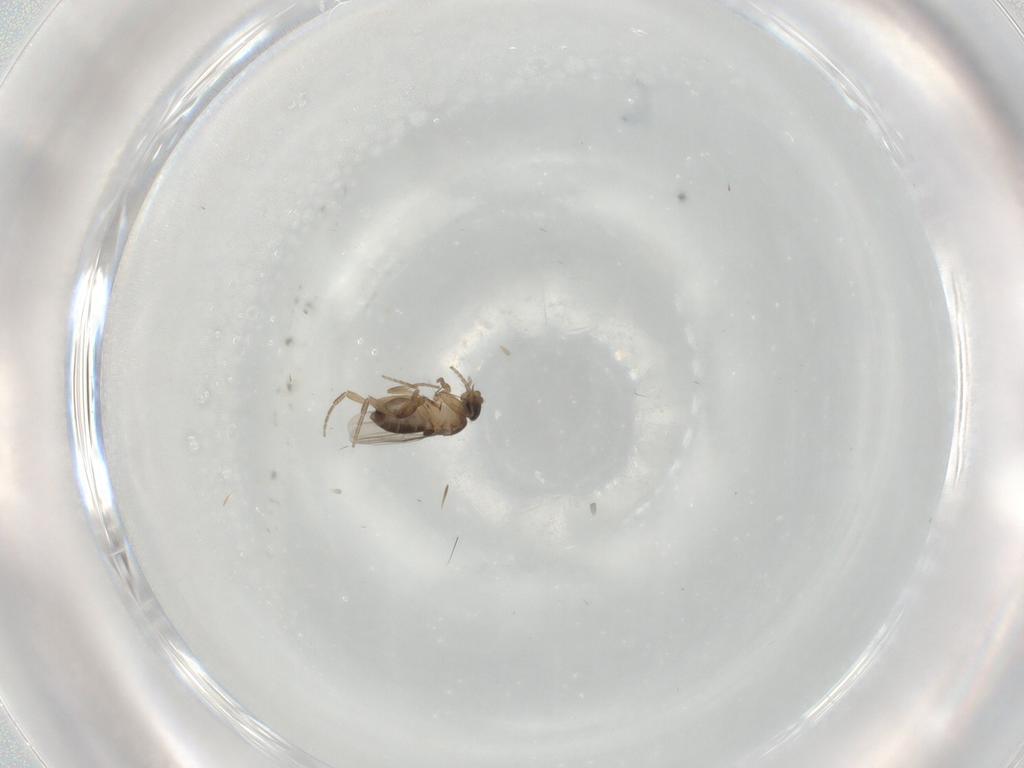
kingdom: Animalia
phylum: Arthropoda
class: Insecta
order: Diptera
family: Phoridae
